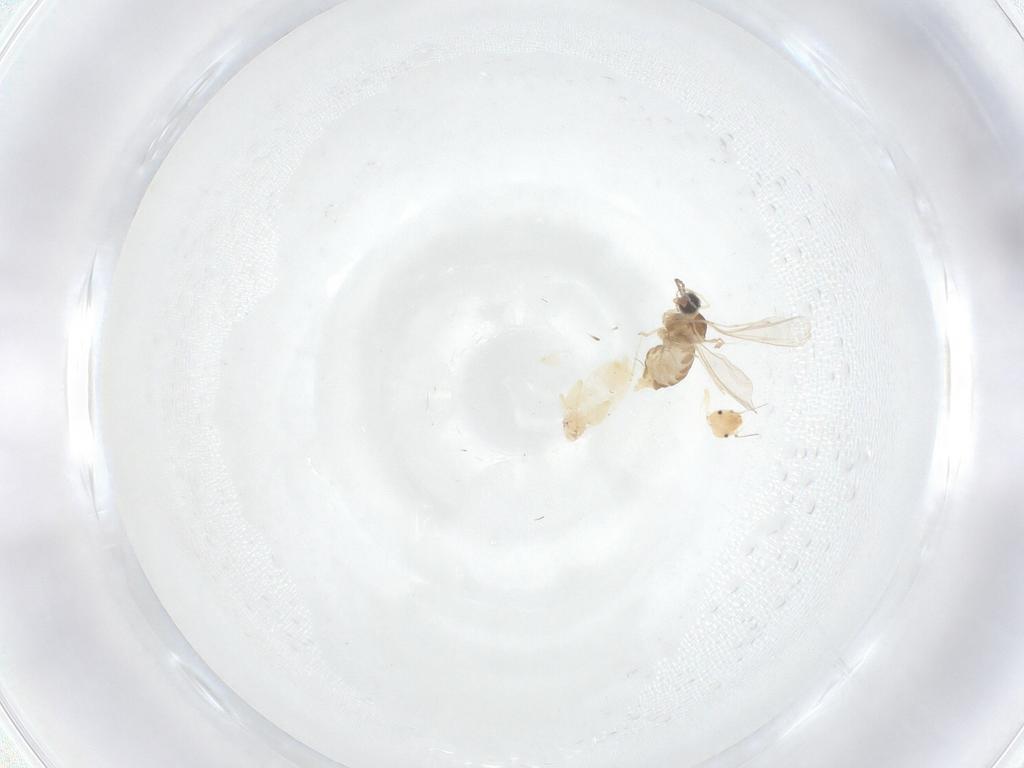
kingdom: Animalia
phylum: Arthropoda
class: Insecta
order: Diptera
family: Cecidomyiidae
